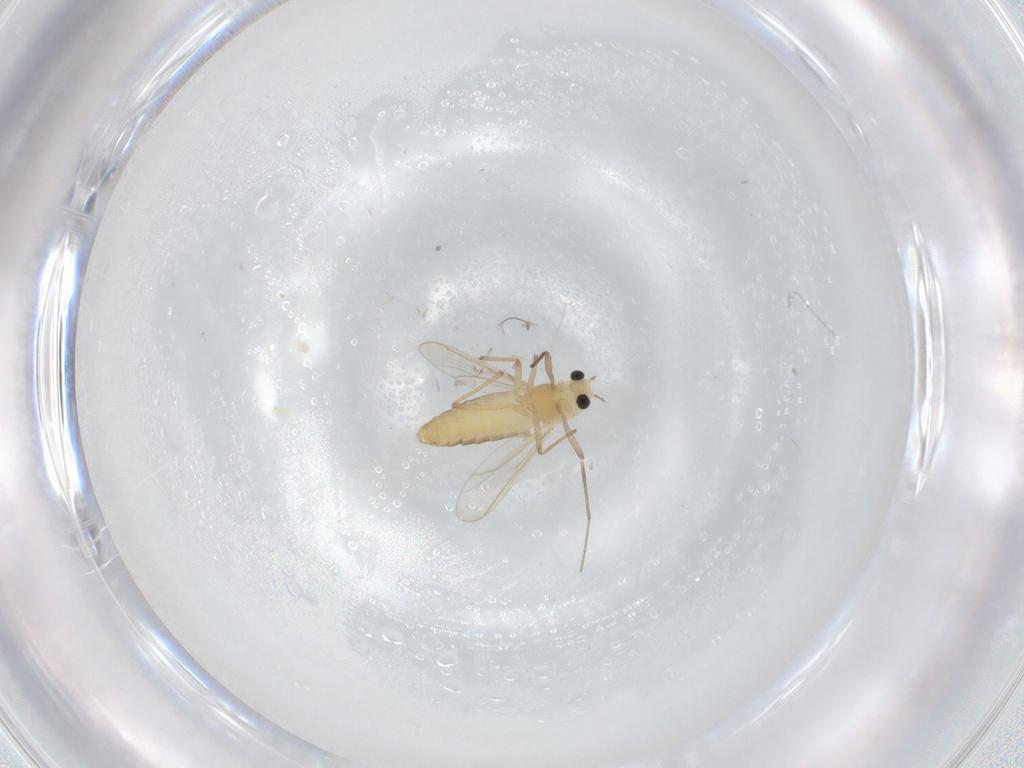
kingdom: Animalia
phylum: Arthropoda
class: Insecta
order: Diptera
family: Chironomidae
